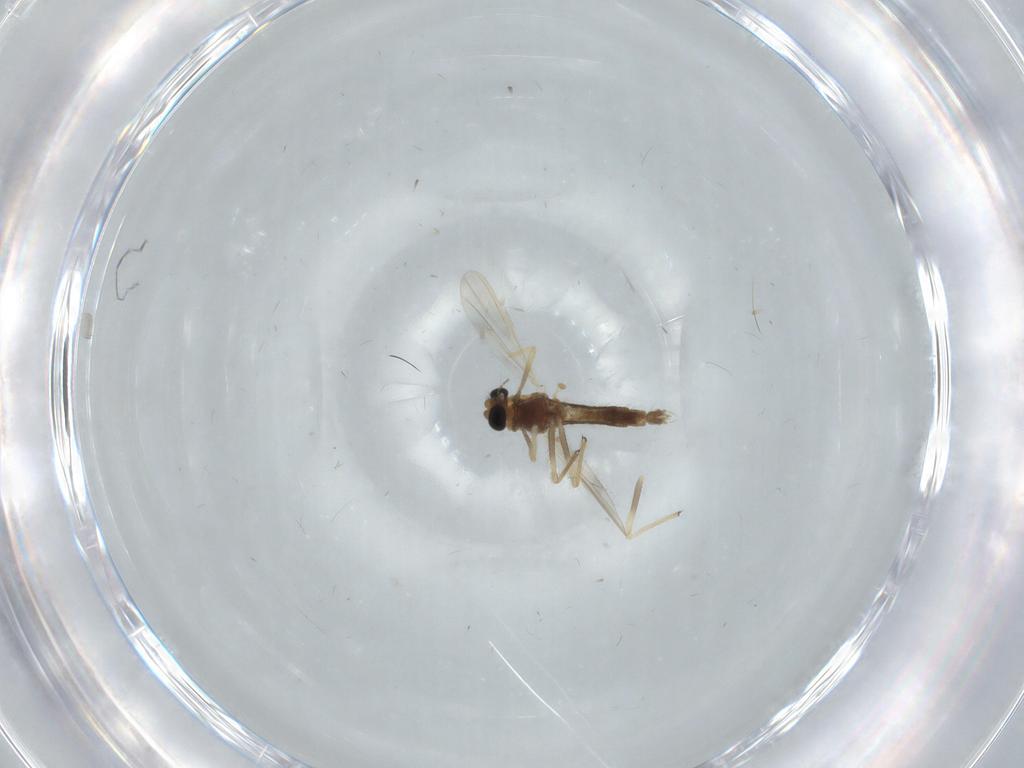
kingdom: Animalia
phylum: Arthropoda
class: Insecta
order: Diptera
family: Chironomidae
